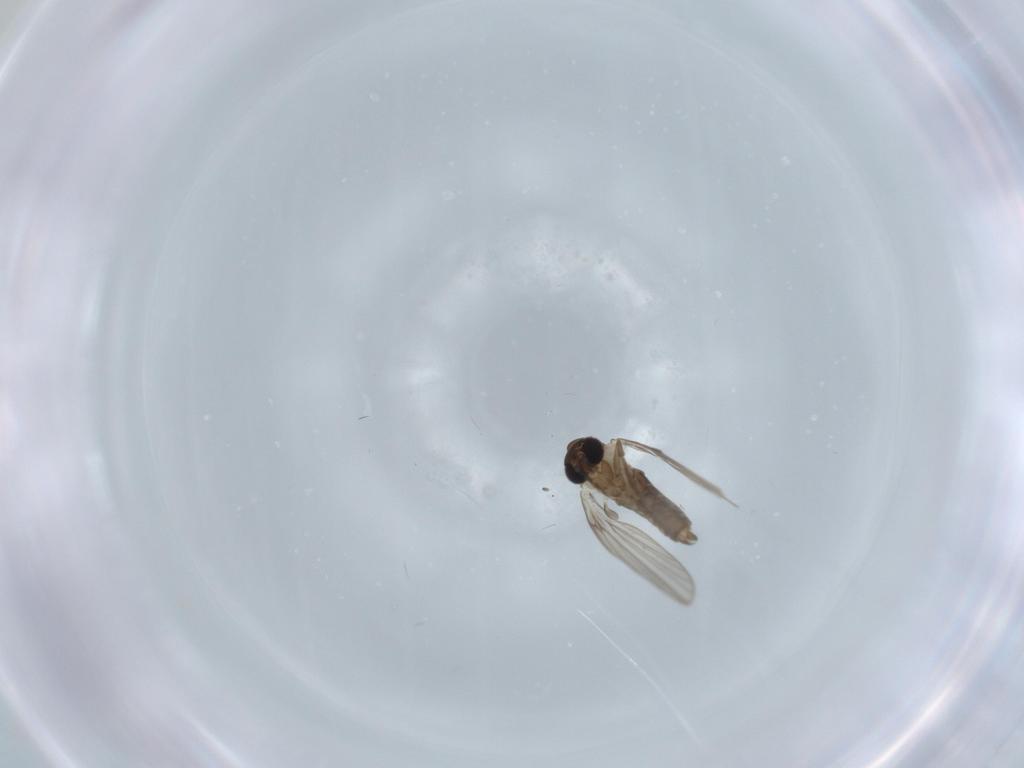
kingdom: Animalia
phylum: Arthropoda
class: Insecta
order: Diptera
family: Psychodidae
